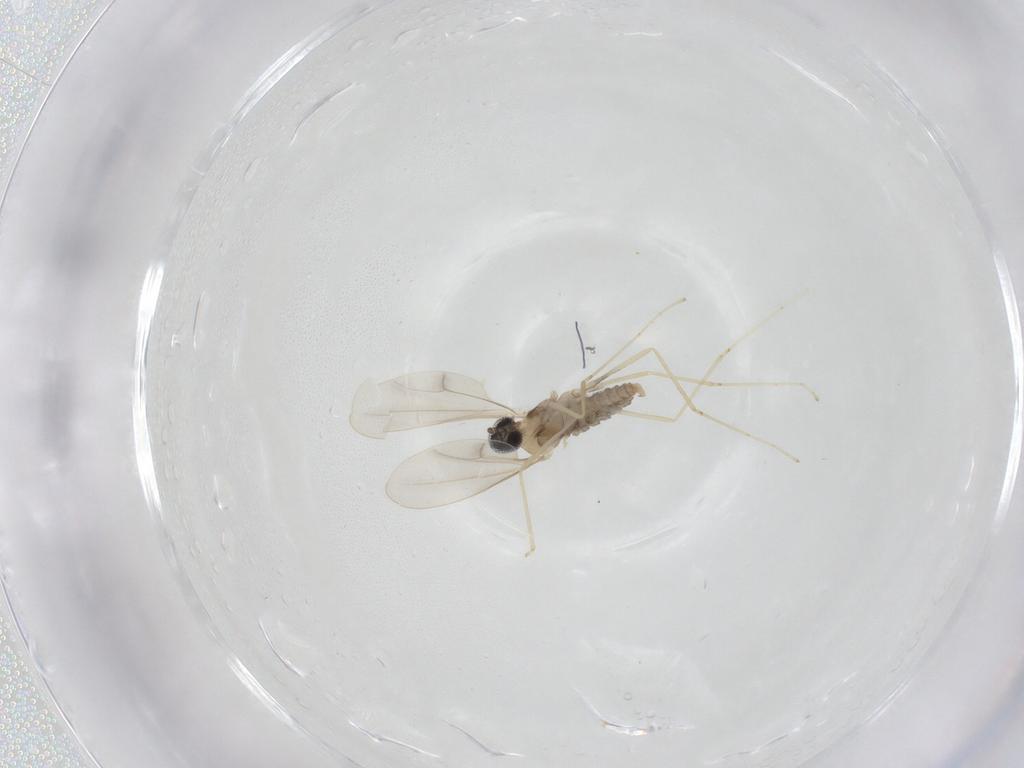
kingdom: Animalia
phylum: Arthropoda
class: Insecta
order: Diptera
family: Cecidomyiidae
